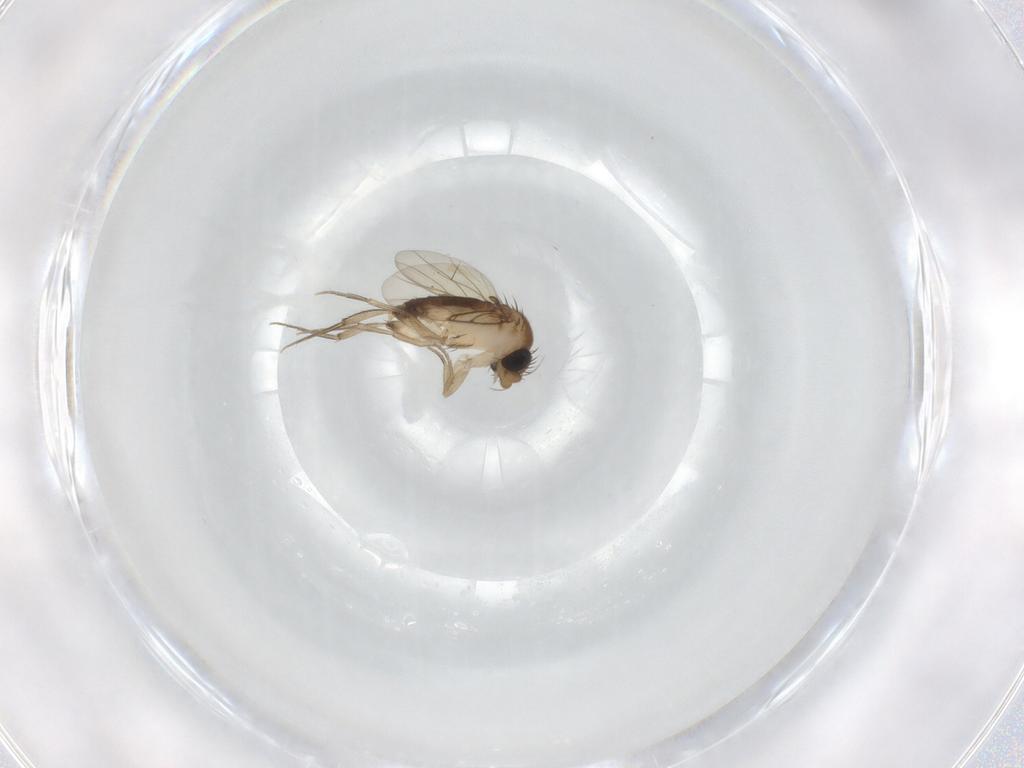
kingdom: Animalia
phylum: Arthropoda
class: Insecta
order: Diptera
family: Phoridae
